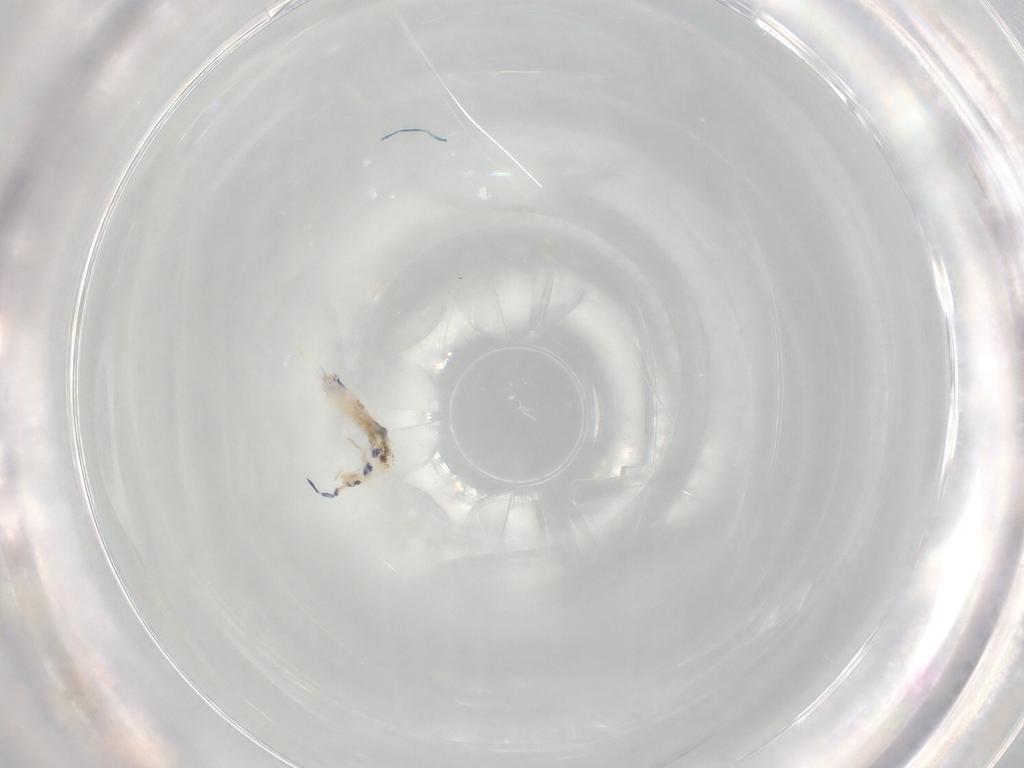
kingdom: Animalia
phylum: Arthropoda
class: Collembola
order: Entomobryomorpha
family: Entomobryidae
